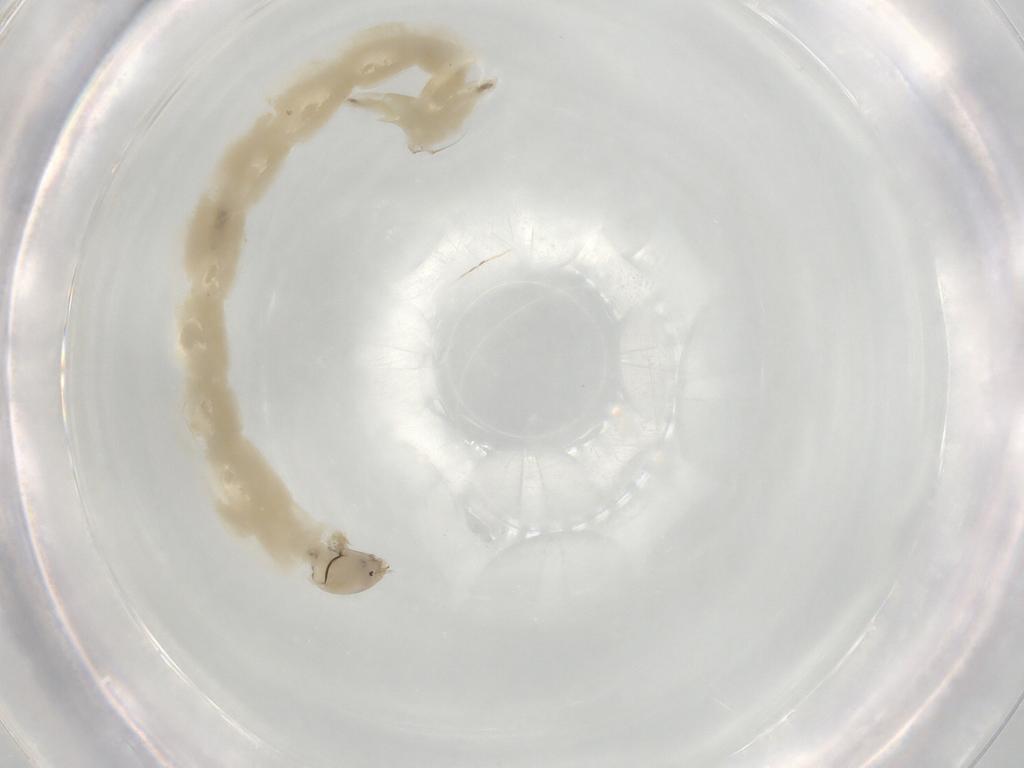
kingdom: Animalia
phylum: Arthropoda
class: Insecta
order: Diptera
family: Chironomidae
